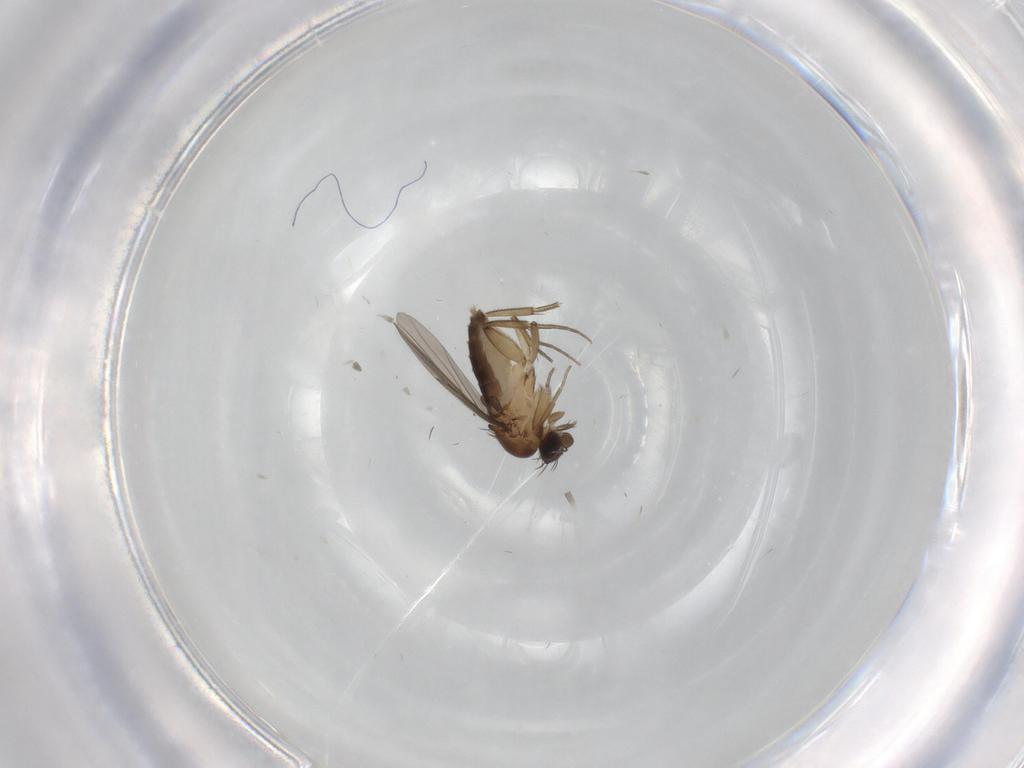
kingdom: Animalia
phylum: Arthropoda
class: Insecta
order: Diptera
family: Phoridae
